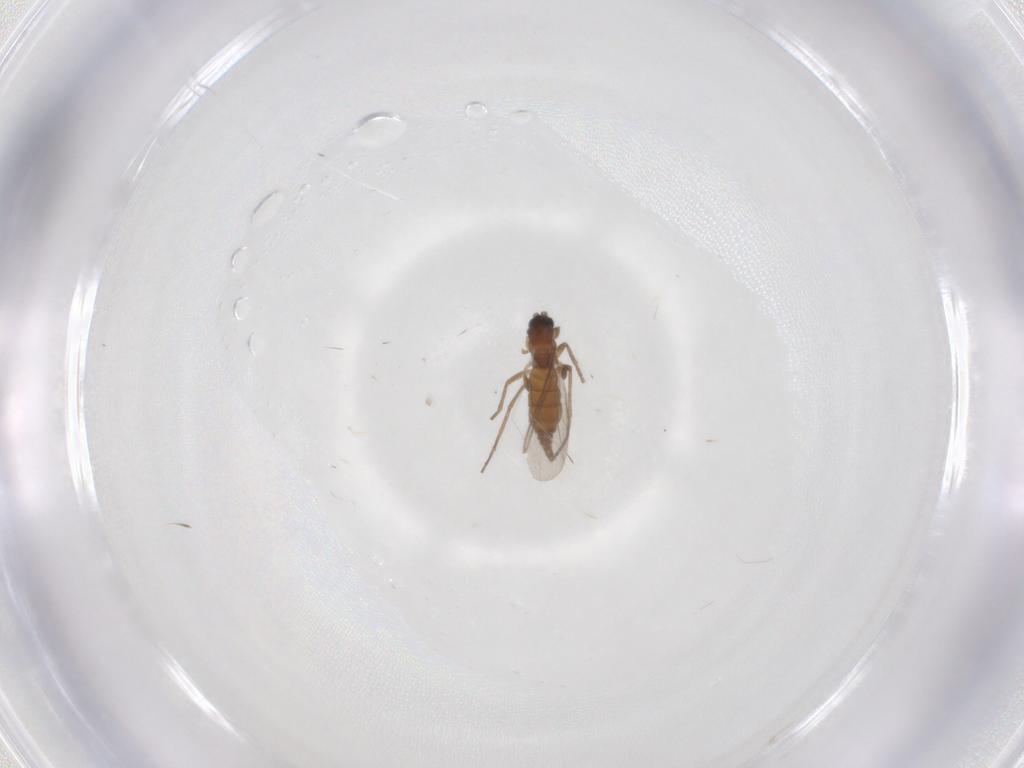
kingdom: Animalia
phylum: Arthropoda
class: Insecta
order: Diptera
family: Sciaridae
